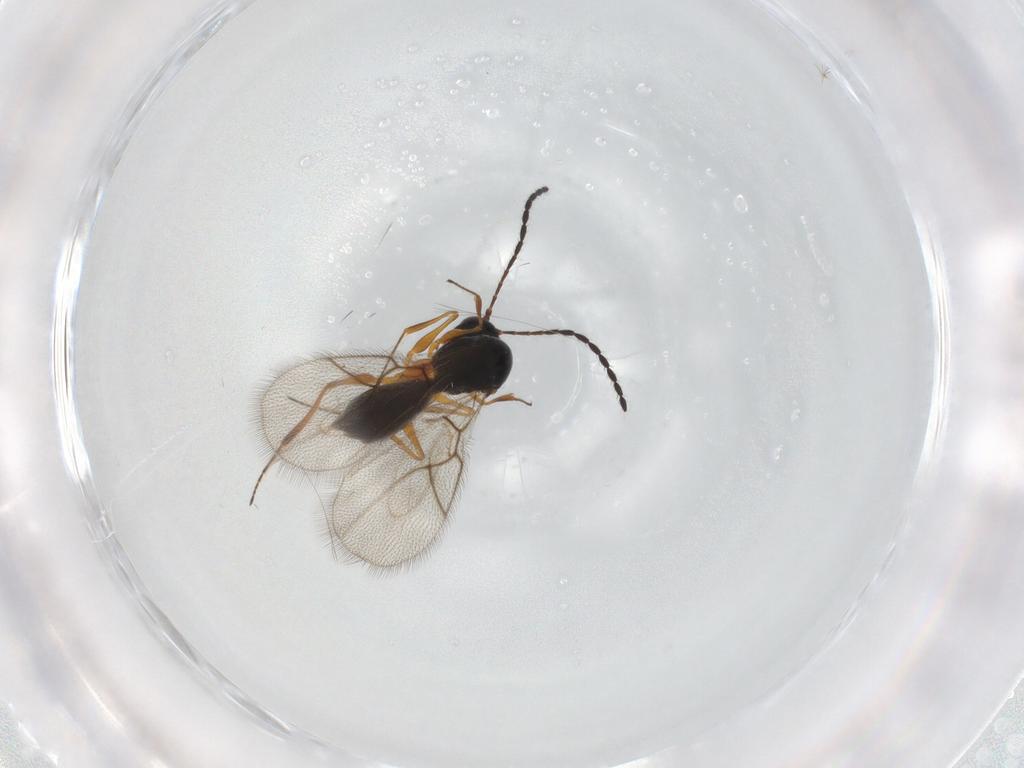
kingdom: Animalia
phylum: Arthropoda
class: Insecta
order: Hymenoptera
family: Figitidae
